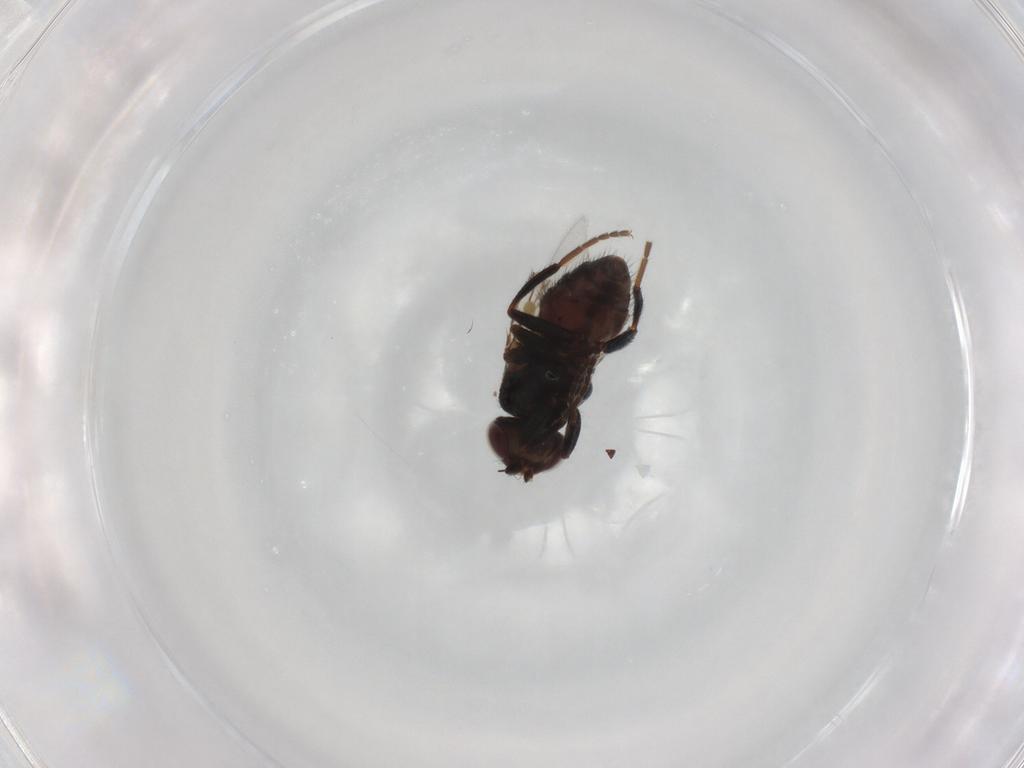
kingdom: Animalia
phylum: Arthropoda
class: Insecta
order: Diptera
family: Chloropidae
